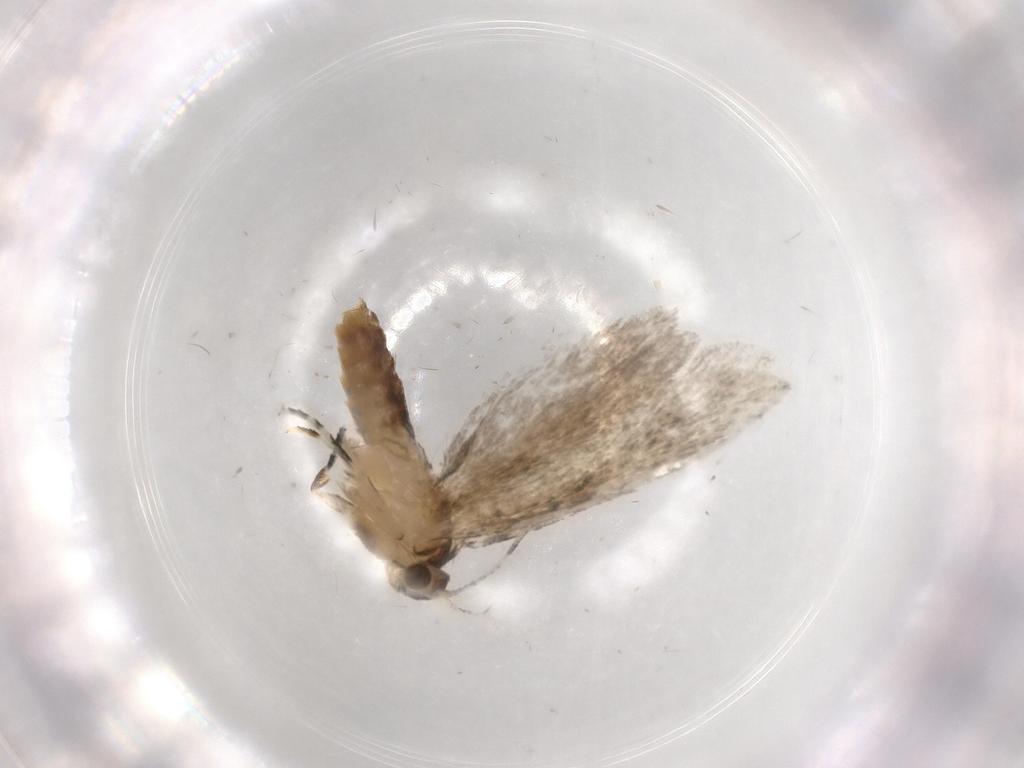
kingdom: Animalia
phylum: Arthropoda
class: Insecta
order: Lepidoptera
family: Tineidae
